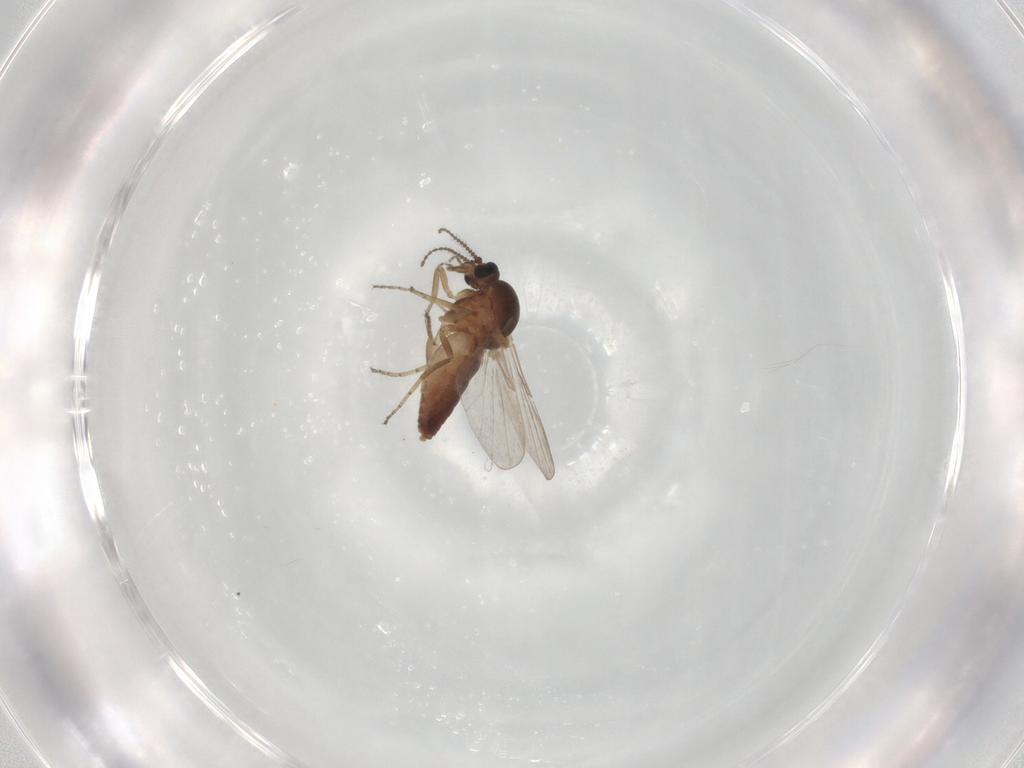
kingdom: Animalia
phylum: Arthropoda
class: Insecta
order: Diptera
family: Ceratopogonidae
